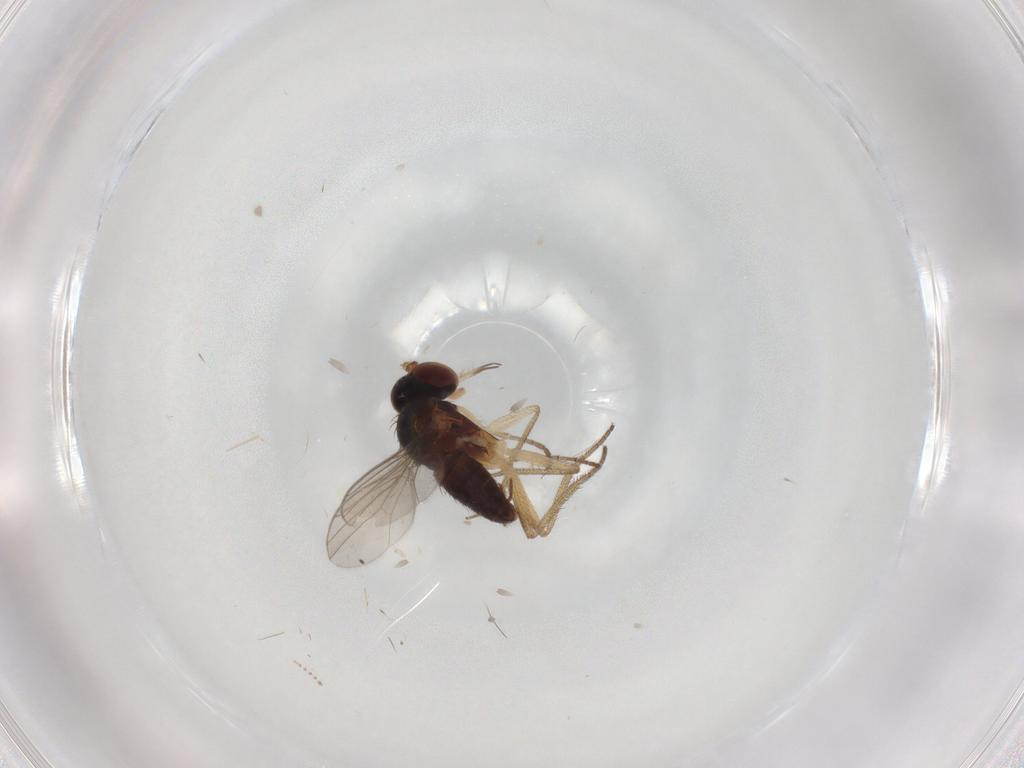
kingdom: Animalia
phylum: Arthropoda
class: Insecta
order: Diptera
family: Dolichopodidae
